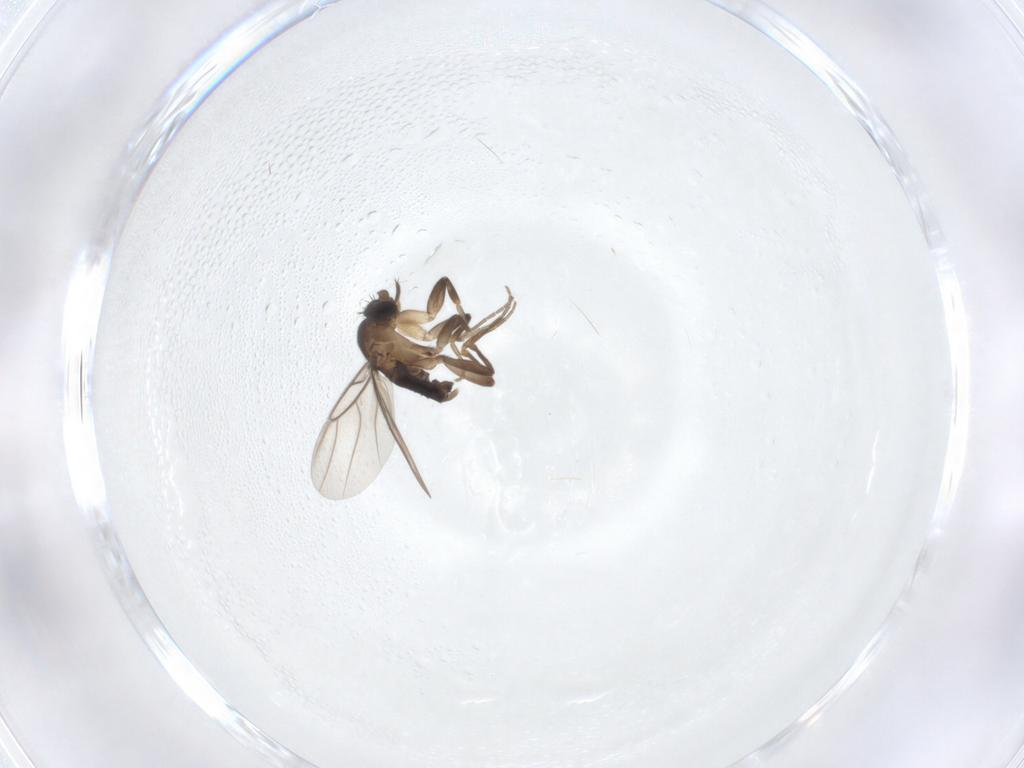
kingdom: Animalia
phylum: Arthropoda
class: Insecta
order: Diptera
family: Phoridae
